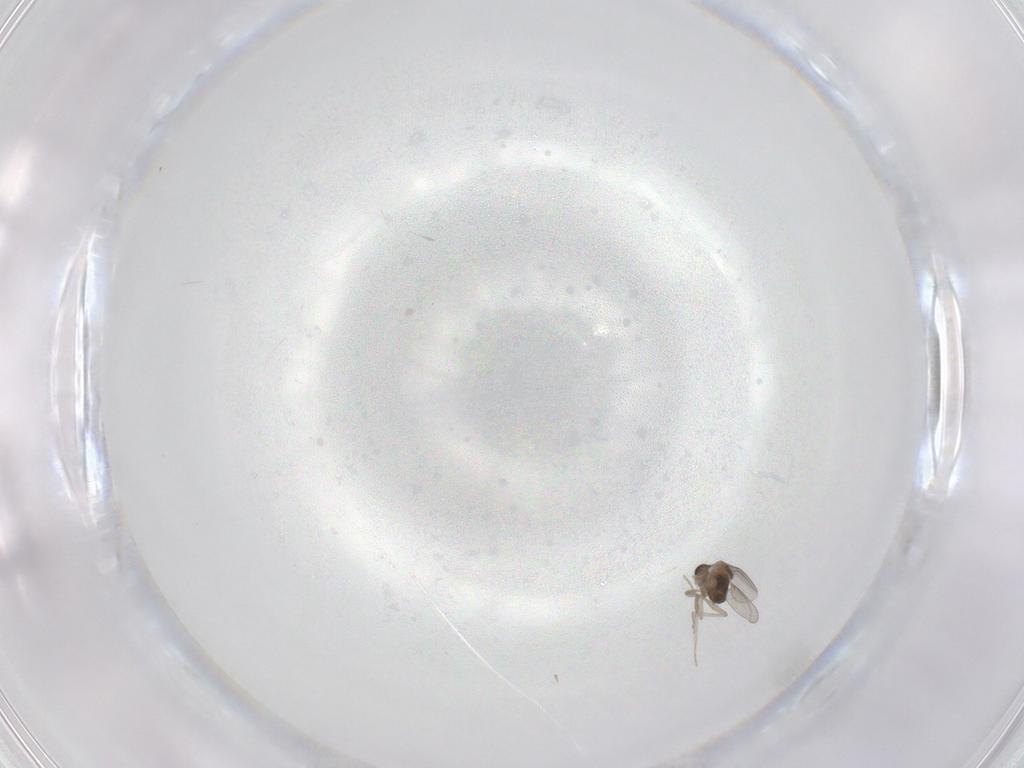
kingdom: Animalia
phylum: Arthropoda
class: Insecta
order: Diptera
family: Cecidomyiidae
